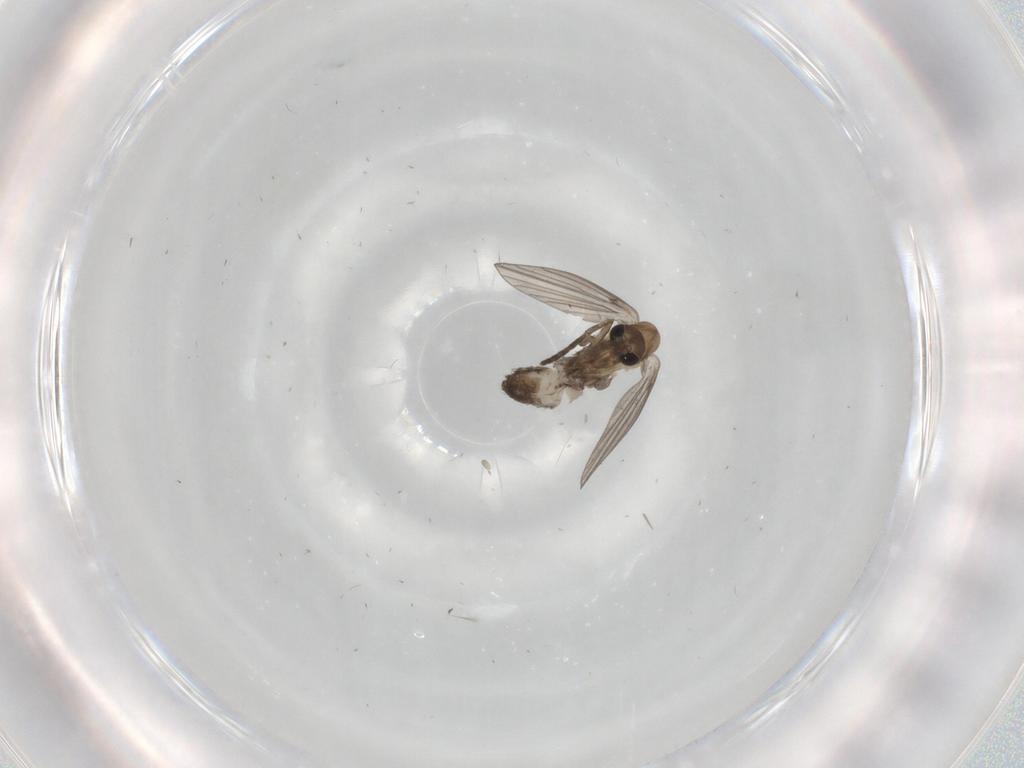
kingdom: Animalia
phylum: Arthropoda
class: Insecta
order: Diptera
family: Psychodidae
